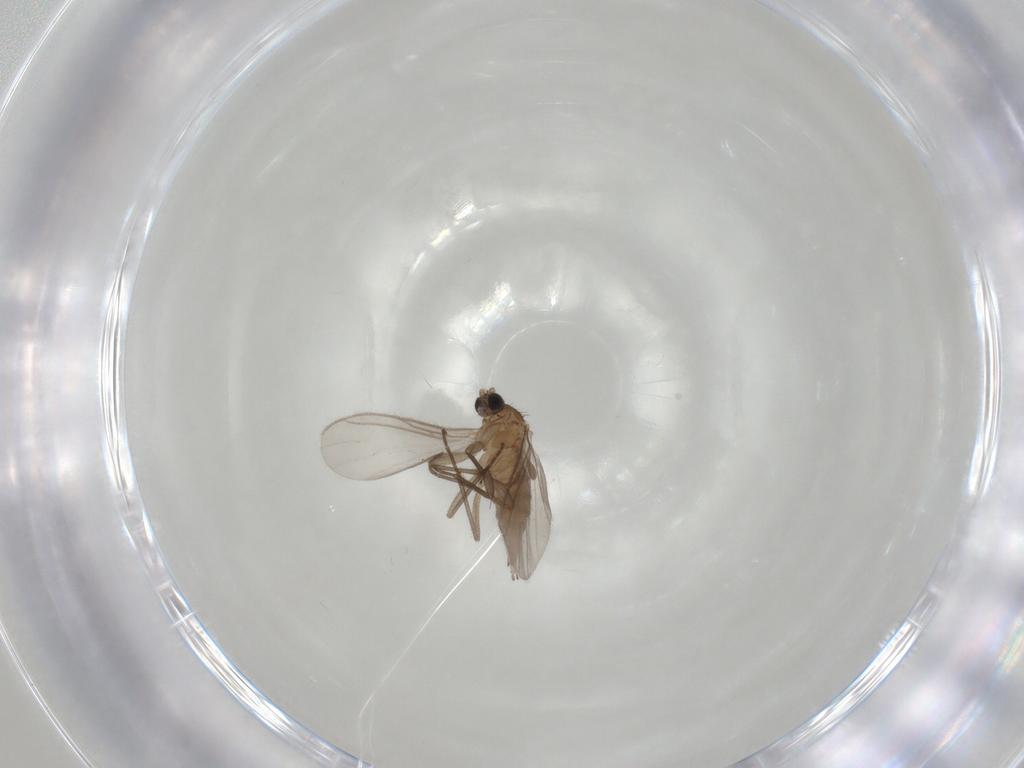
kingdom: Animalia
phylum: Arthropoda
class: Insecta
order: Diptera
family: Sciaridae
